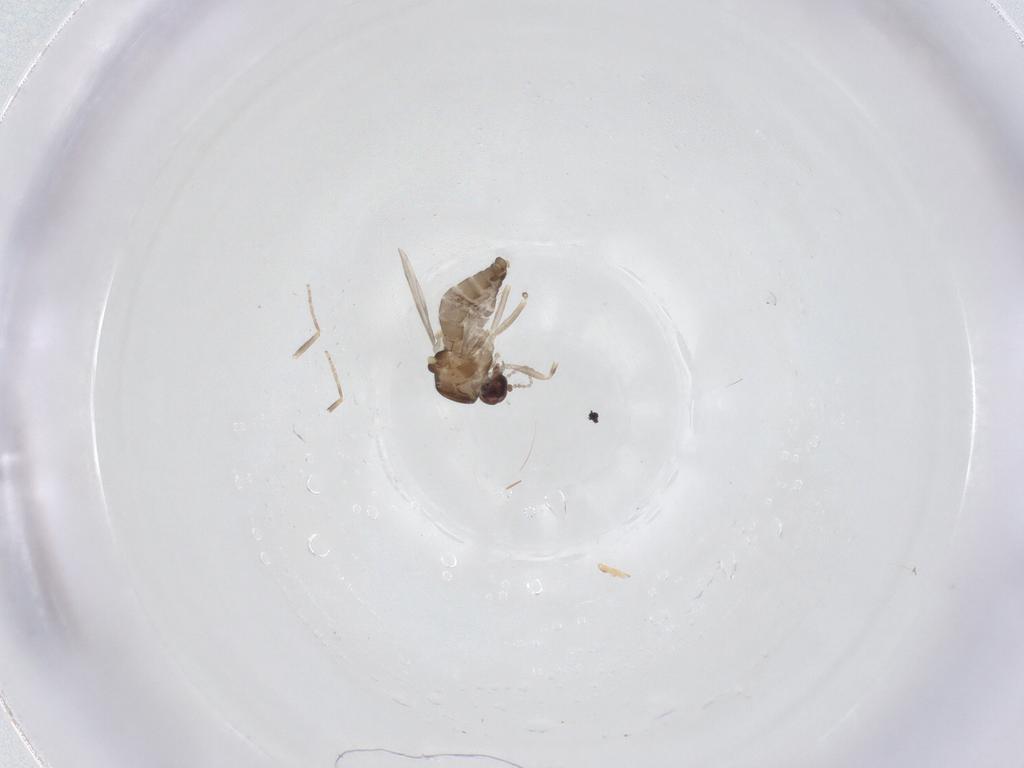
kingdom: Animalia
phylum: Arthropoda
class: Insecta
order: Diptera
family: Ceratopogonidae
